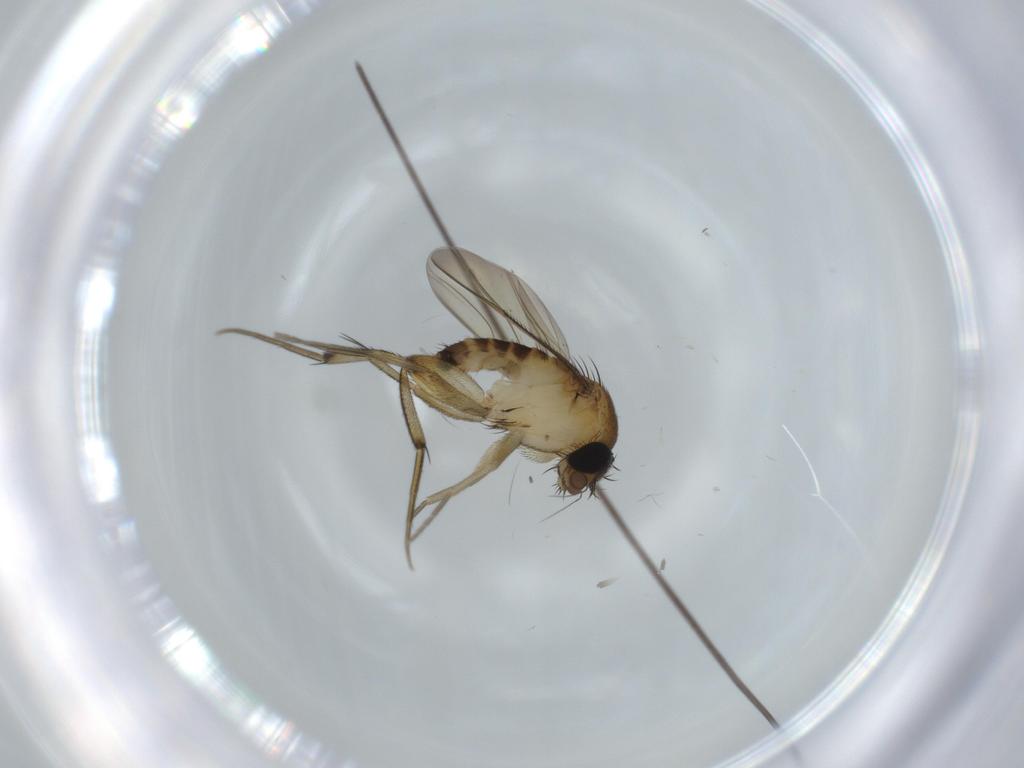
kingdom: Animalia
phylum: Arthropoda
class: Insecta
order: Diptera
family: Phoridae
